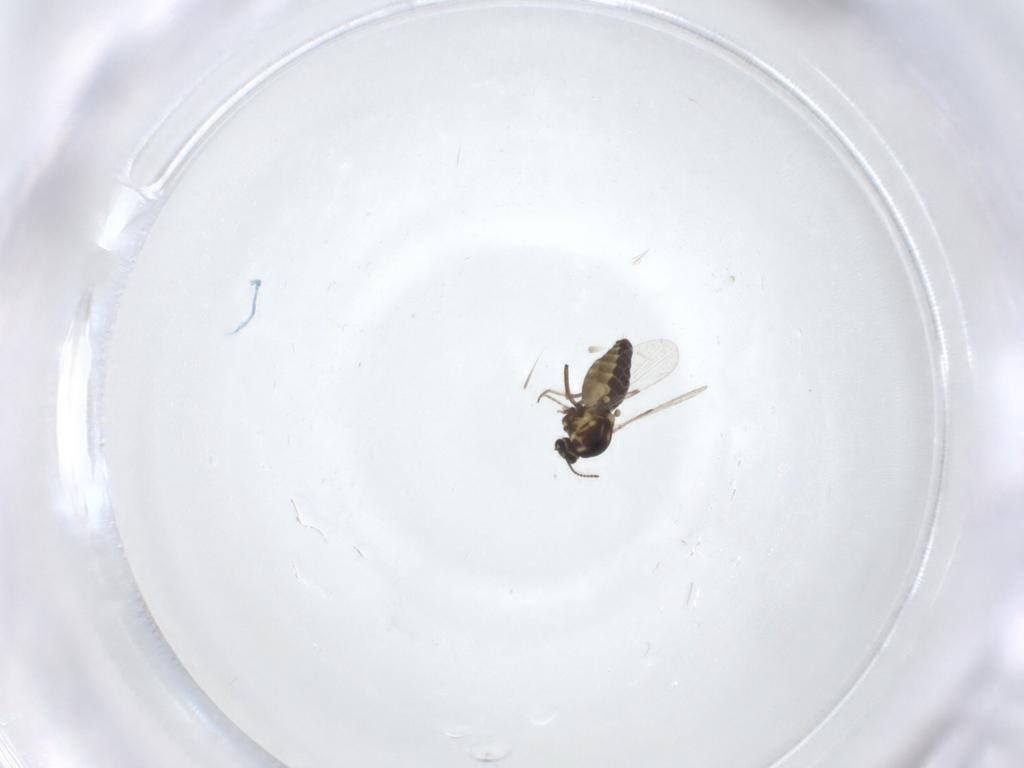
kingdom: Animalia
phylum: Arthropoda
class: Insecta
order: Diptera
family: Ceratopogonidae
